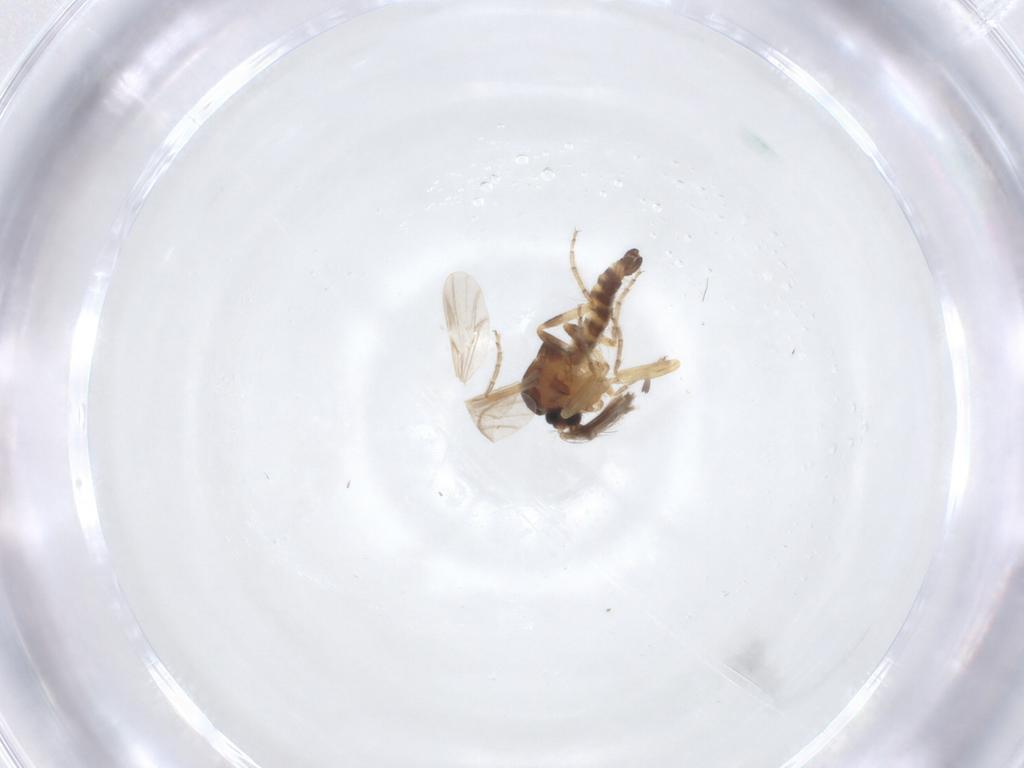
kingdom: Animalia
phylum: Arthropoda
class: Insecta
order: Diptera
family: Ceratopogonidae
